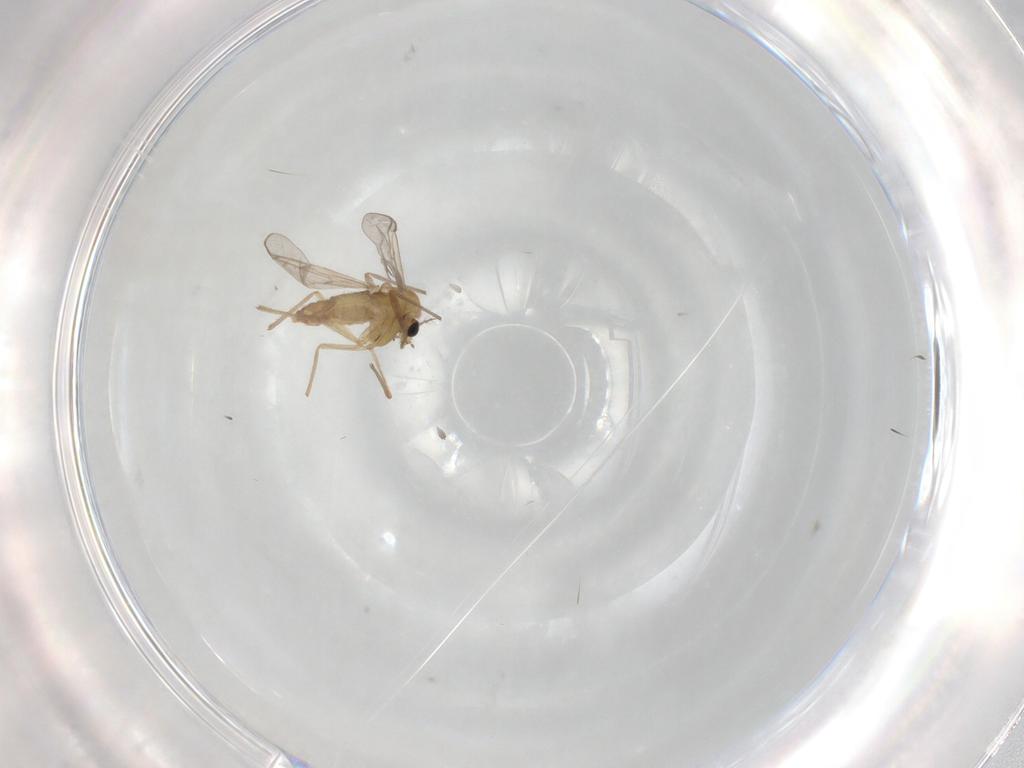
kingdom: Animalia
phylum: Arthropoda
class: Insecta
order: Diptera
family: Chironomidae
